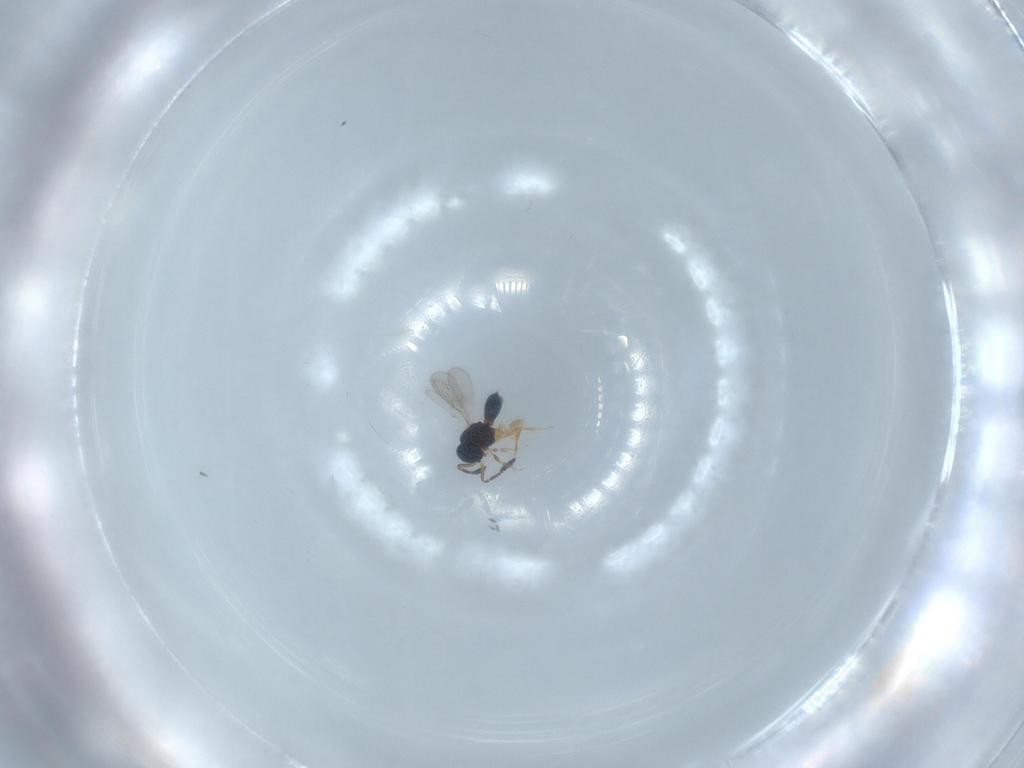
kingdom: Animalia
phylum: Arthropoda
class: Insecta
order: Hymenoptera
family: Scelionidae
